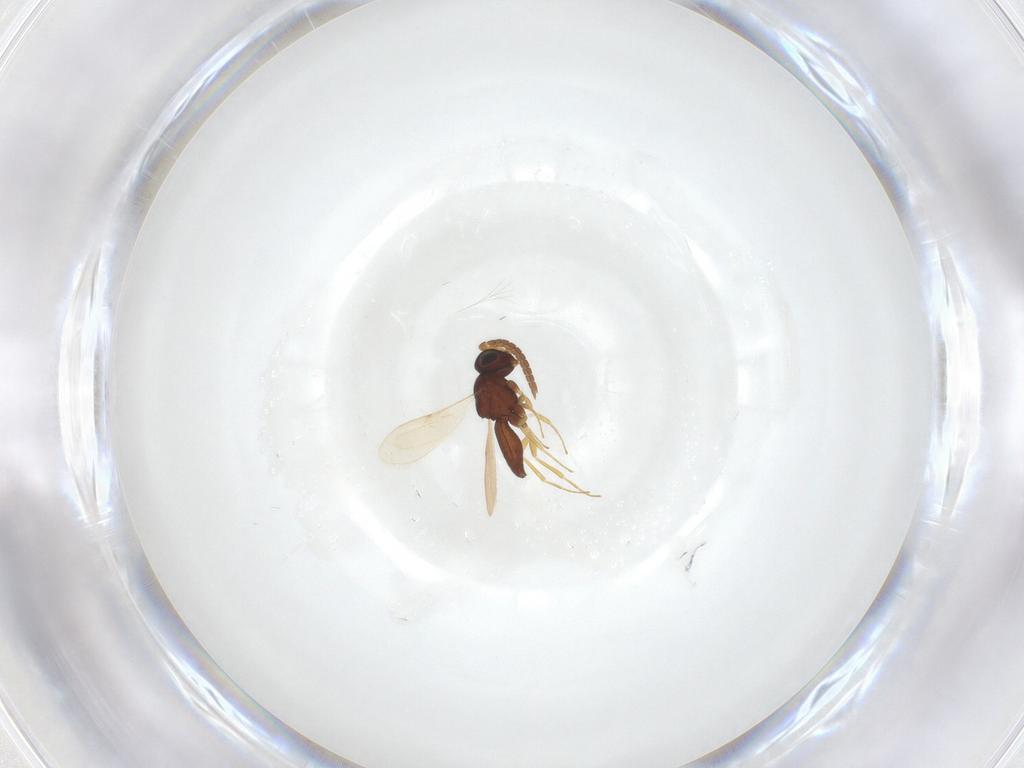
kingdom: Animalia
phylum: Arthropoda
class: Insecta
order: Hymenoptera
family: Scelionidae
